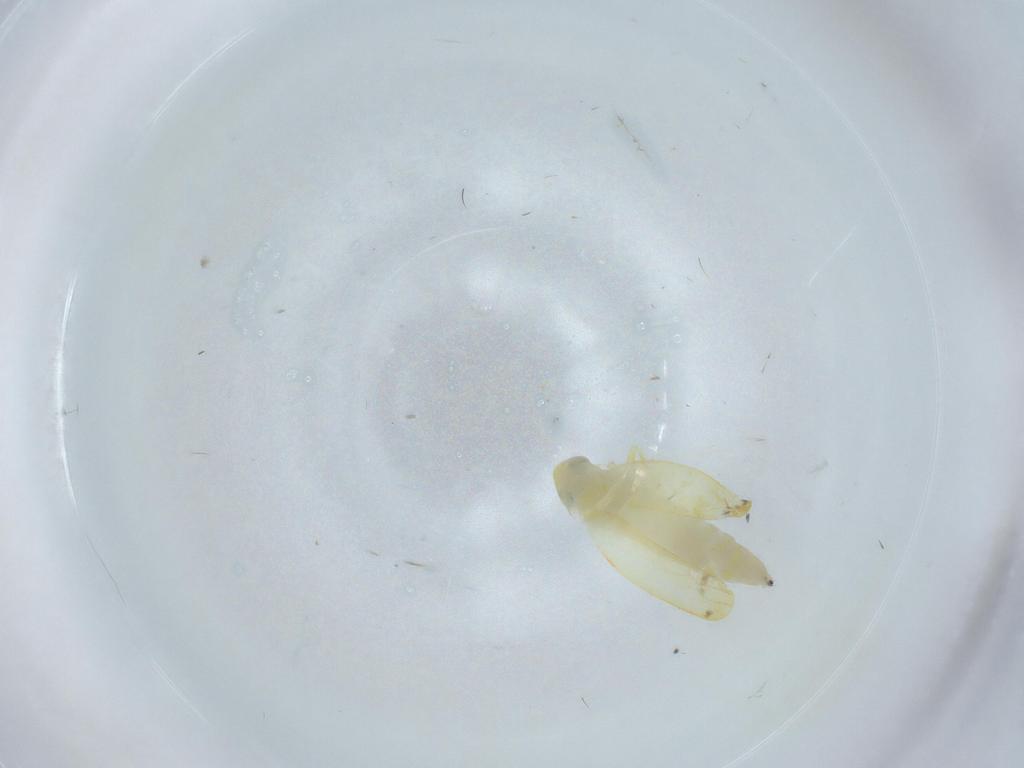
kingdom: Animalia
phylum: Arthropoda
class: Insecta
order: Hemiptera
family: Cicadellidae
